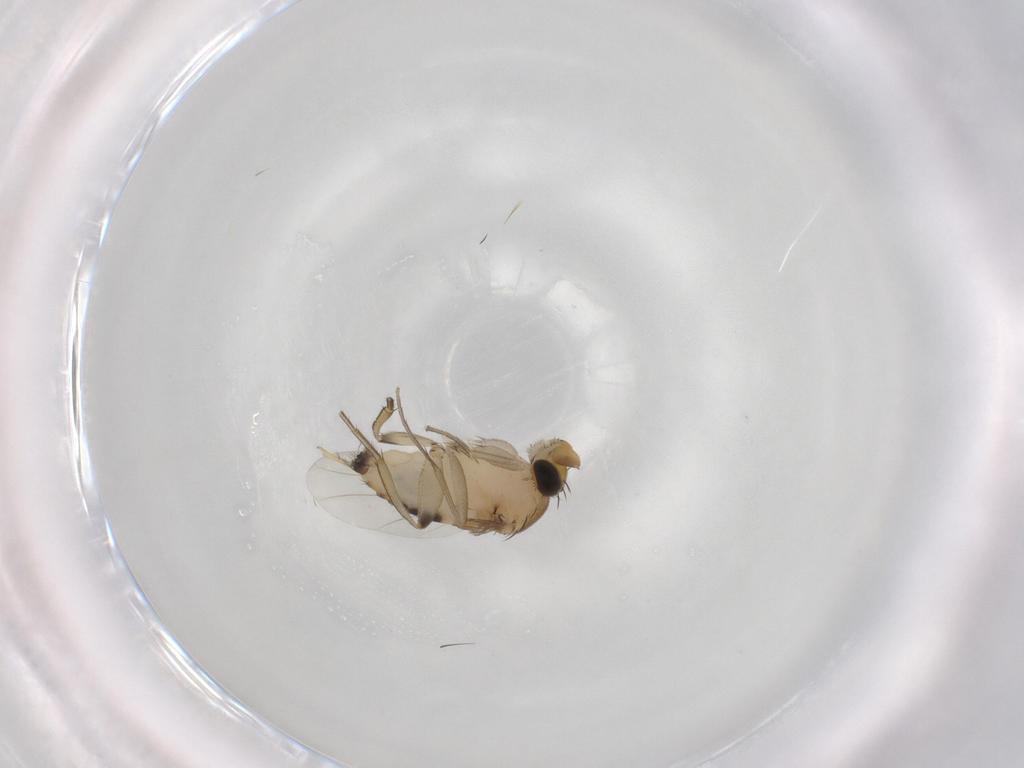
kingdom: Animalia
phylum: Arthropoda
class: Insecta
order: Diptera
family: Phoridae
